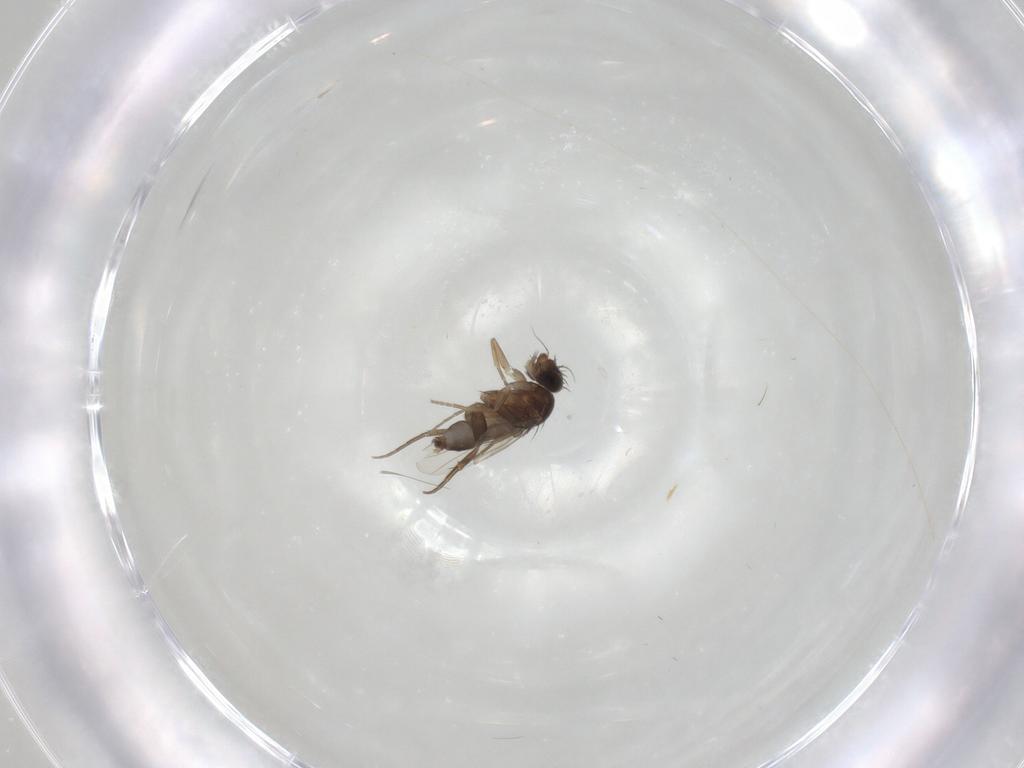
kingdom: Animalia
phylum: Arthropoda
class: Insecta
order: Diptera
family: Phoridae
